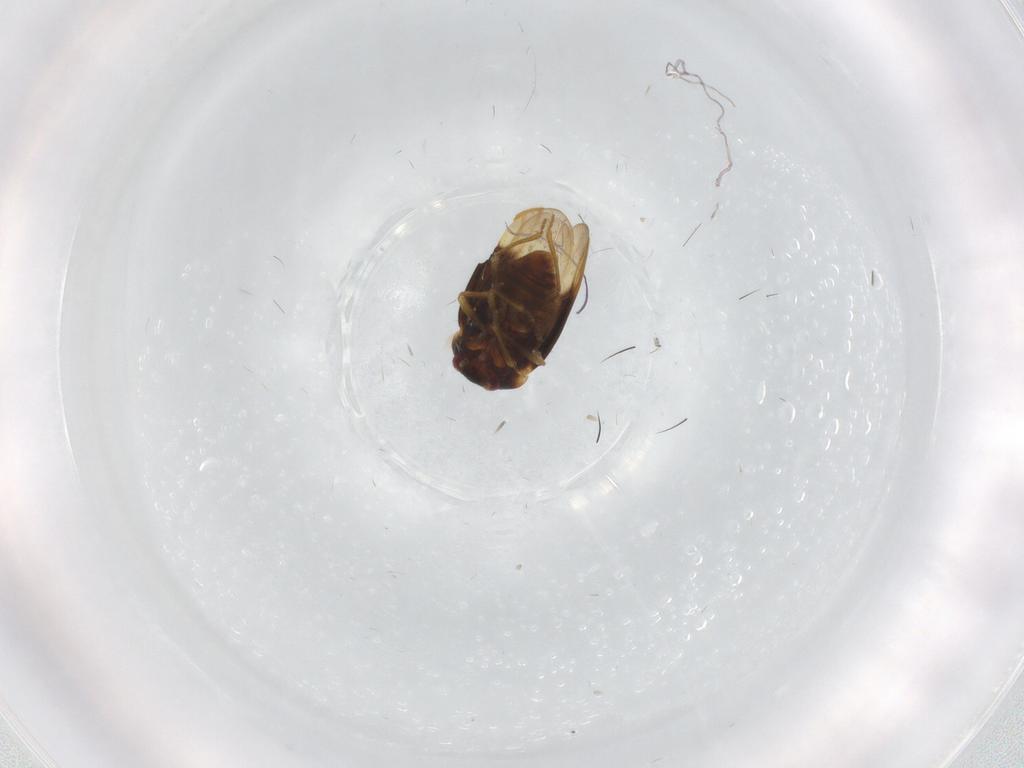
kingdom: Animalia
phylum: Arthropoda
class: Insecta
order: Hemiptera
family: Schizopteridae
